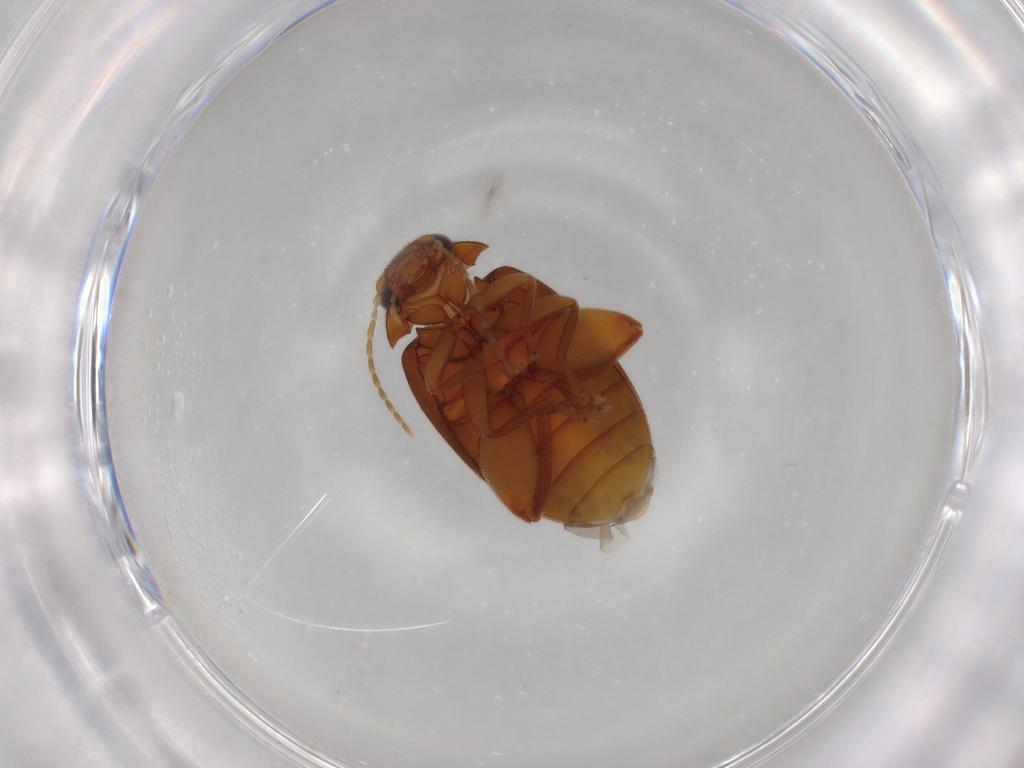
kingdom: Animalia
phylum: Arthropoda
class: Insecta
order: Coleoptera
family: Scirtidae
